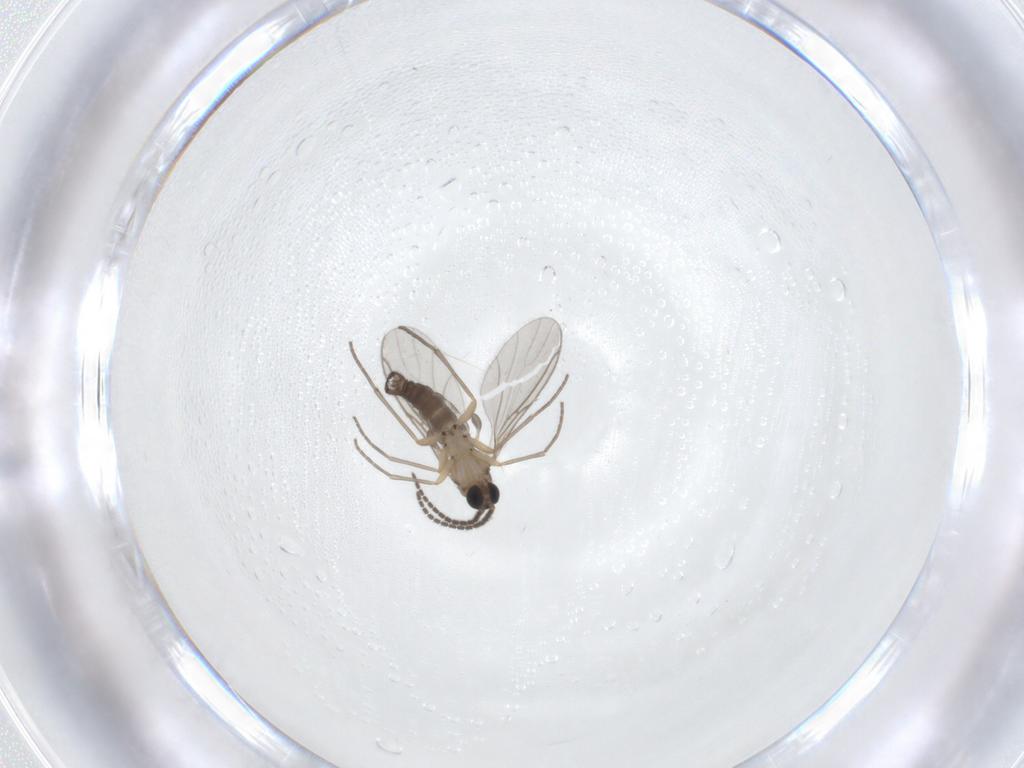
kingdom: Animalia
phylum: Arthropoda
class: Insecta
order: Diptera
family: Sciaridae
